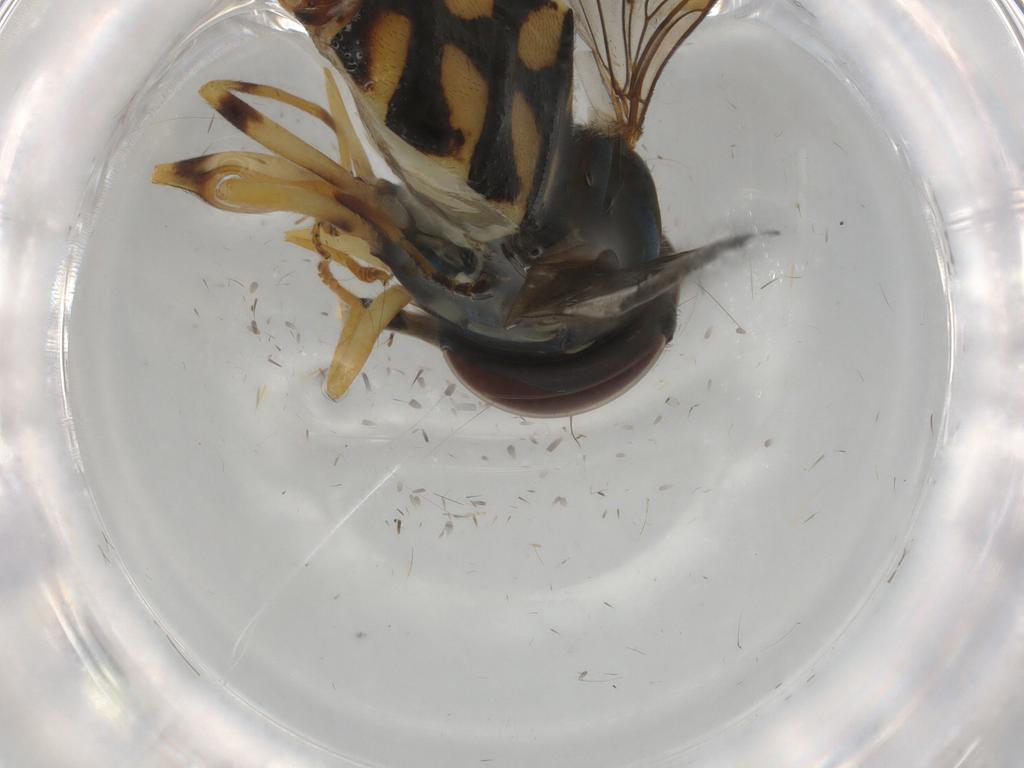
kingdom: Animalia
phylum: Arthropoda
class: Insecta
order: Diptera
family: Syrphidae
